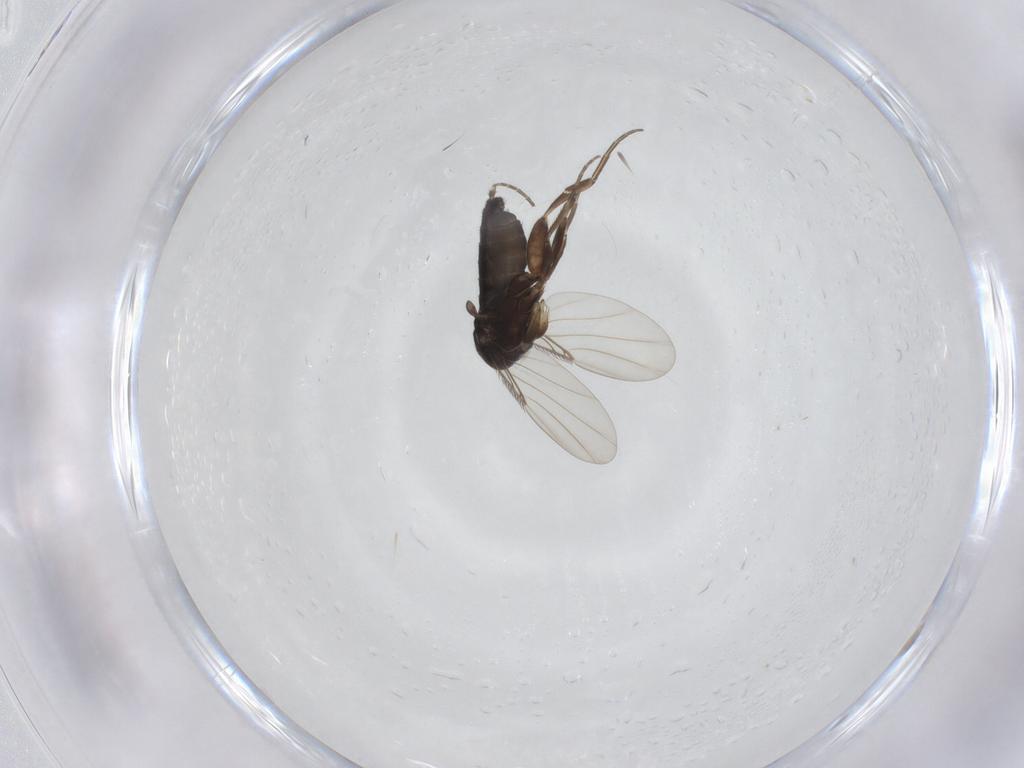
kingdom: Animalia
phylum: Arthropoda
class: Insecta
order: Diptera
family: Phoridae
